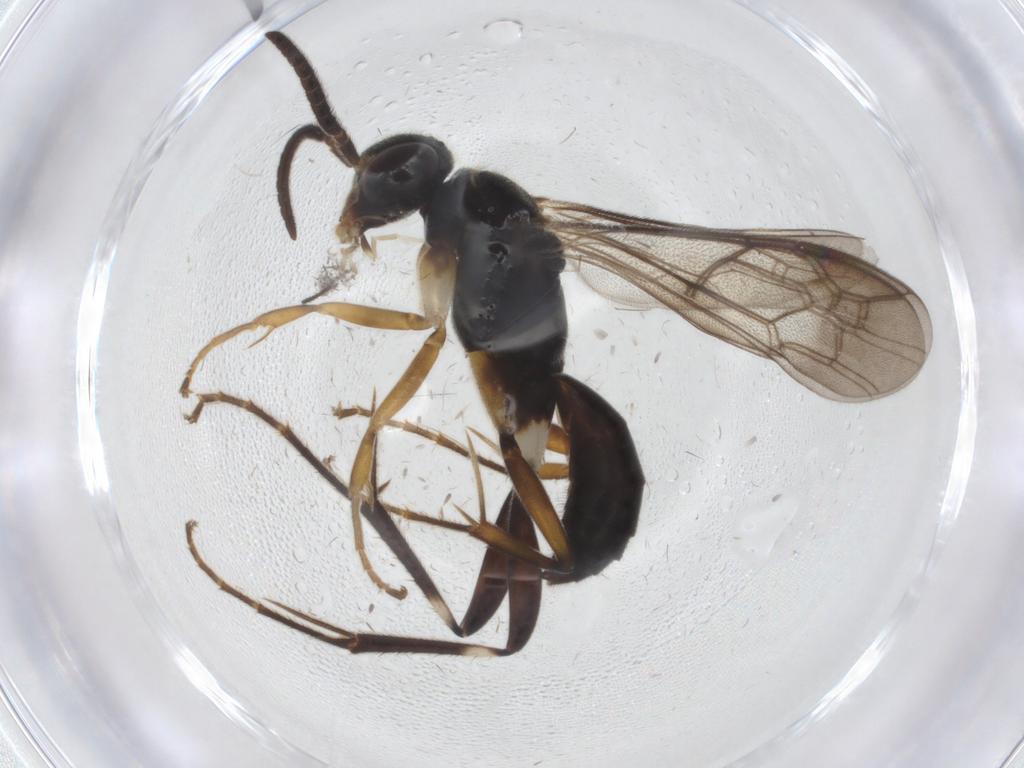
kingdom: Animalia
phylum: Arthropoda
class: Insecta
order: Hymenoptera
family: Pompilidae
